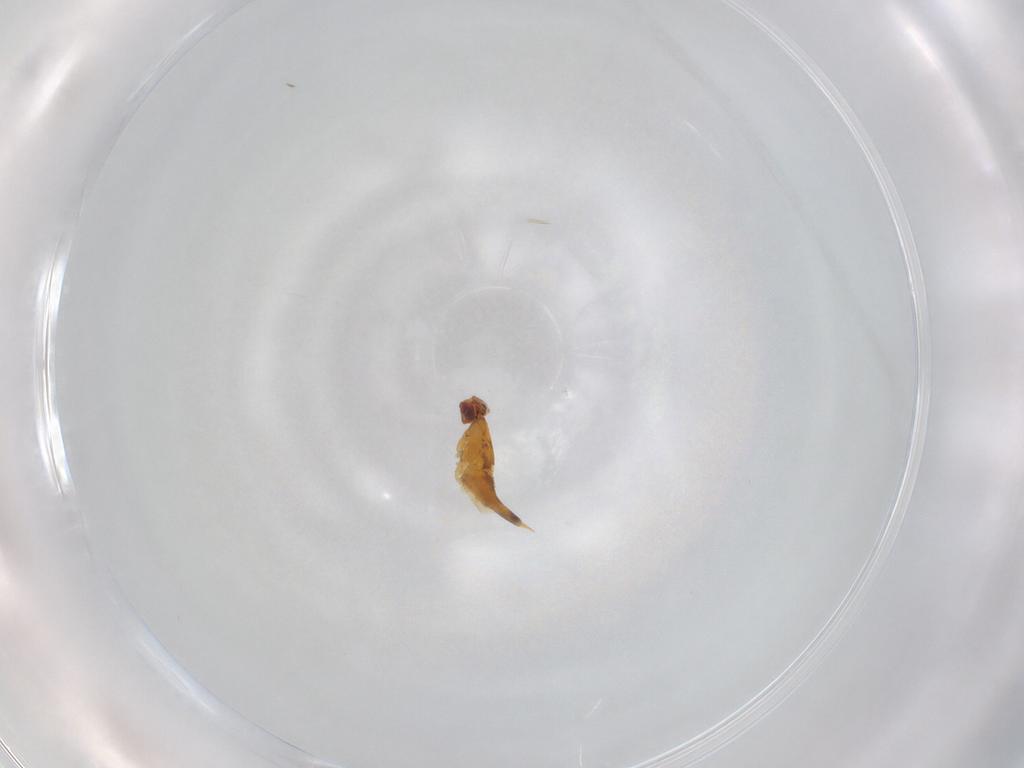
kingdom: Animalia
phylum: Arthropoda
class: Insecta
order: Hymenoptera
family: Aphelinidae
